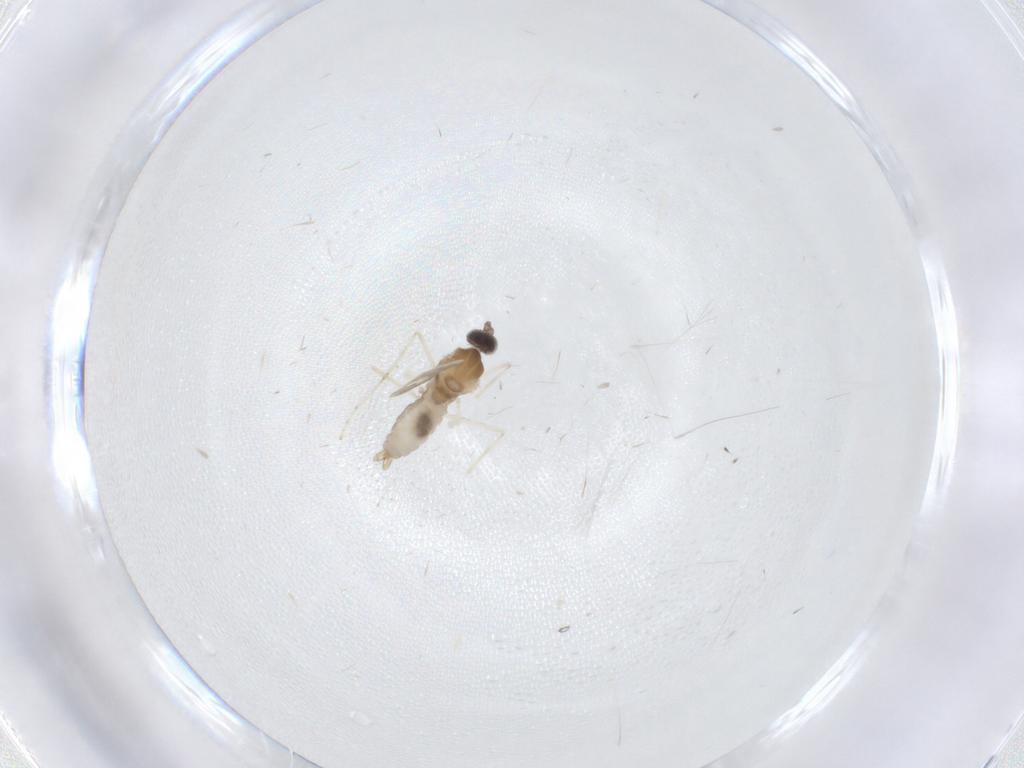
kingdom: Animalia
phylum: Arthropoda
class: Insecta
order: Diptera
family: Cecidomyiidae
